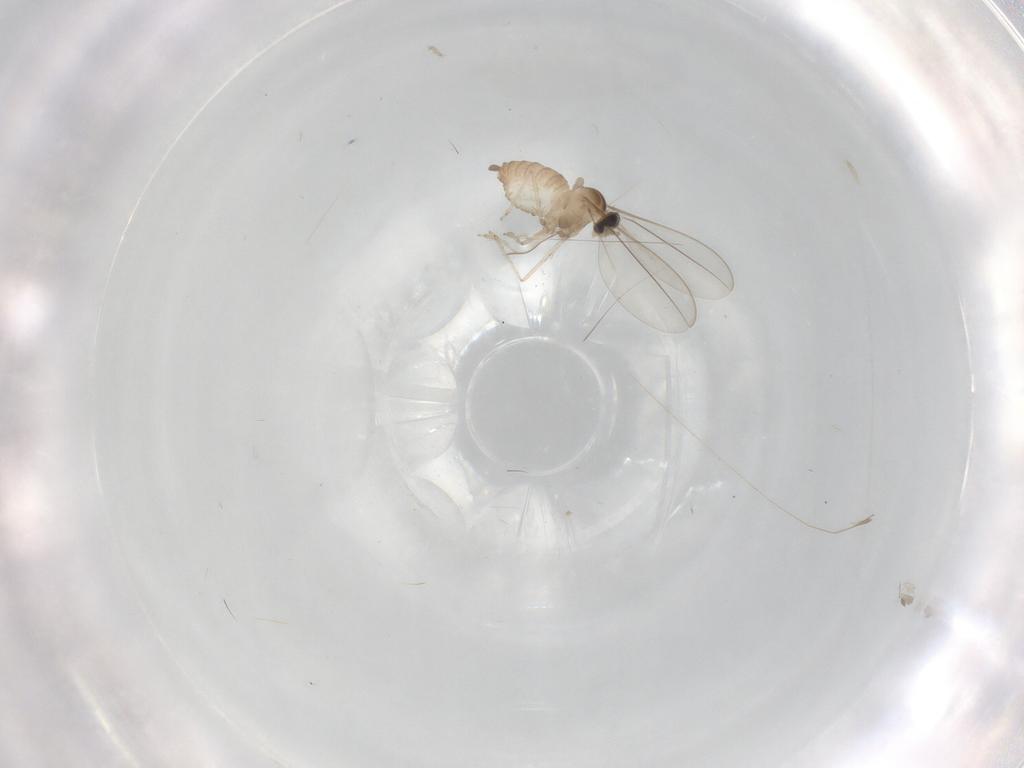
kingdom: Animalia
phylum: Arthropoda
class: Insecta
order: Diptera
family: Cecidomyiidae
